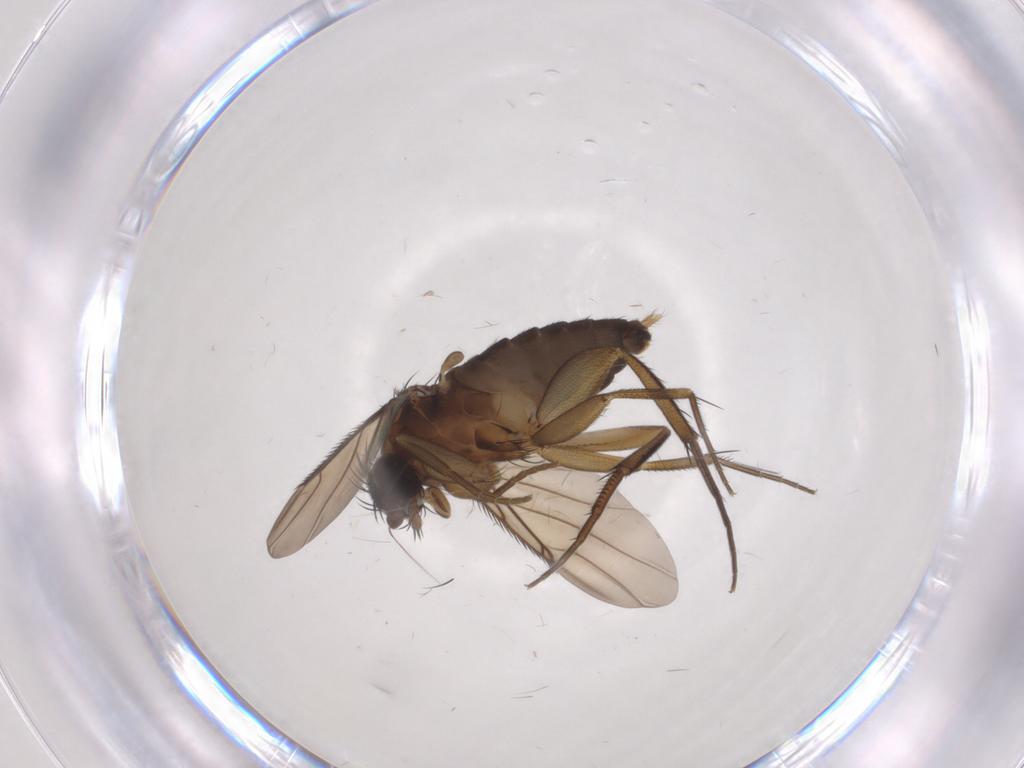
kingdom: Animalia
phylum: Arthropoda
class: Insecta
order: Diptera
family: Phoridae
